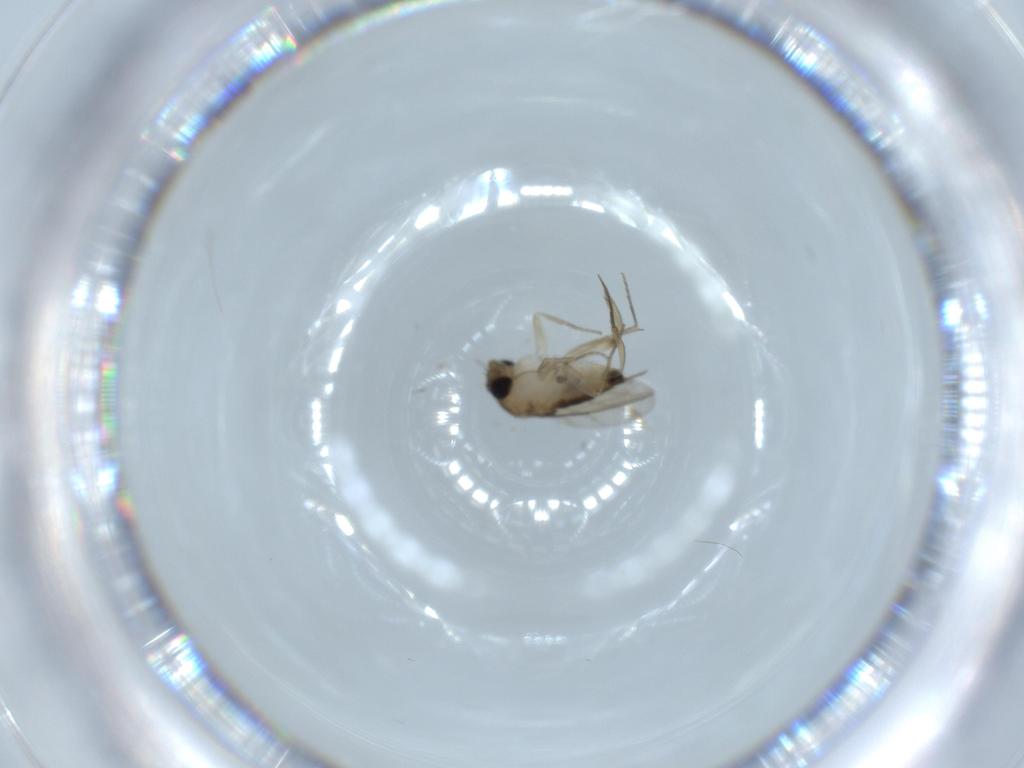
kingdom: Animalia
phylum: Arthropoda
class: Insecta
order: Diptera
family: Phoridae
